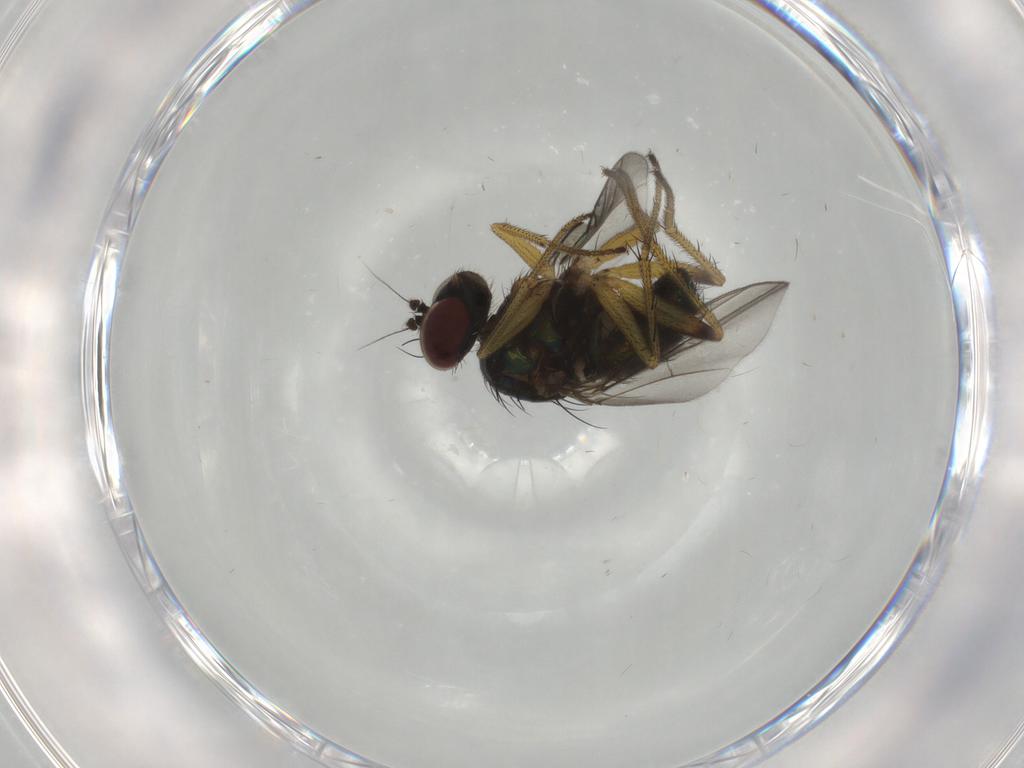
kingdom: Animalia
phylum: Arthropoda
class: Insecta
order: Diptera
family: Dolichopodidae
